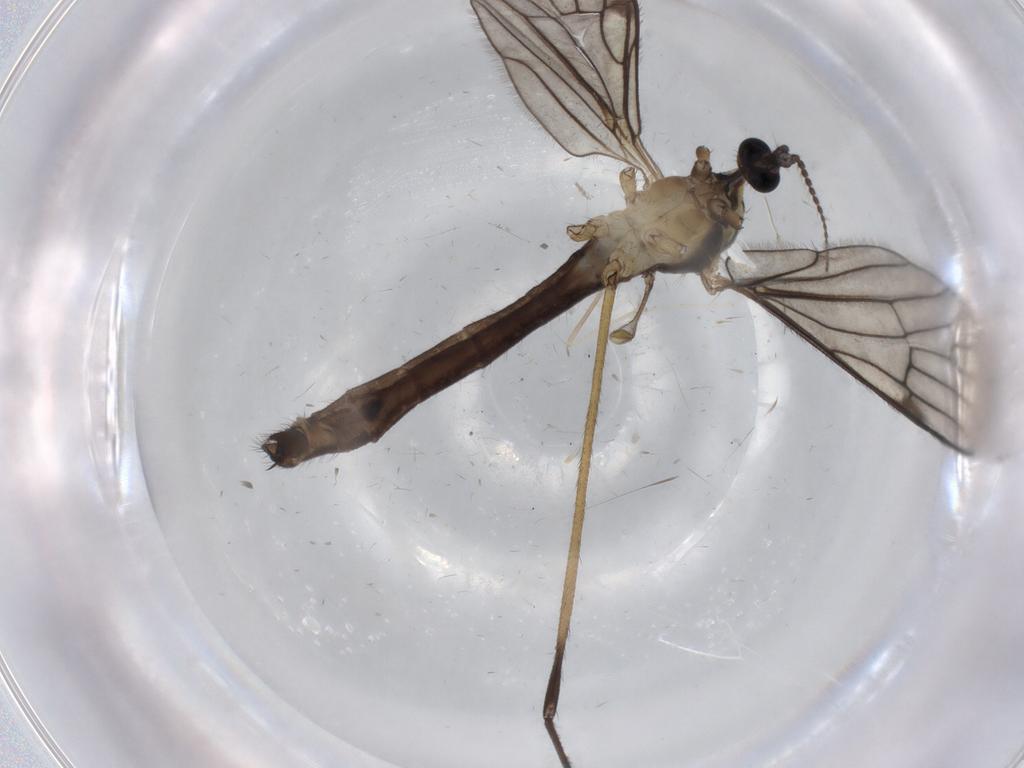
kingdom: Animalia
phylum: Arthropoda
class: Insecta
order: Diptera
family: Limoniidae
